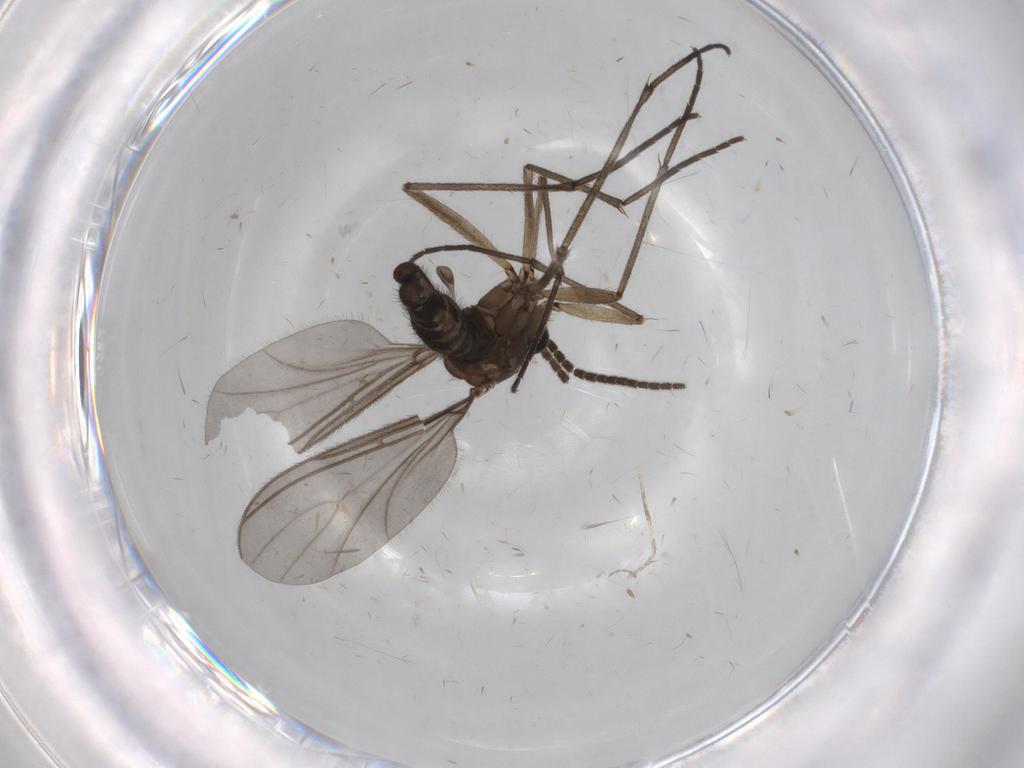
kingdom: Animalia
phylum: Arthropoda
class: Insecta
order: Diptera
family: Sciaridae
